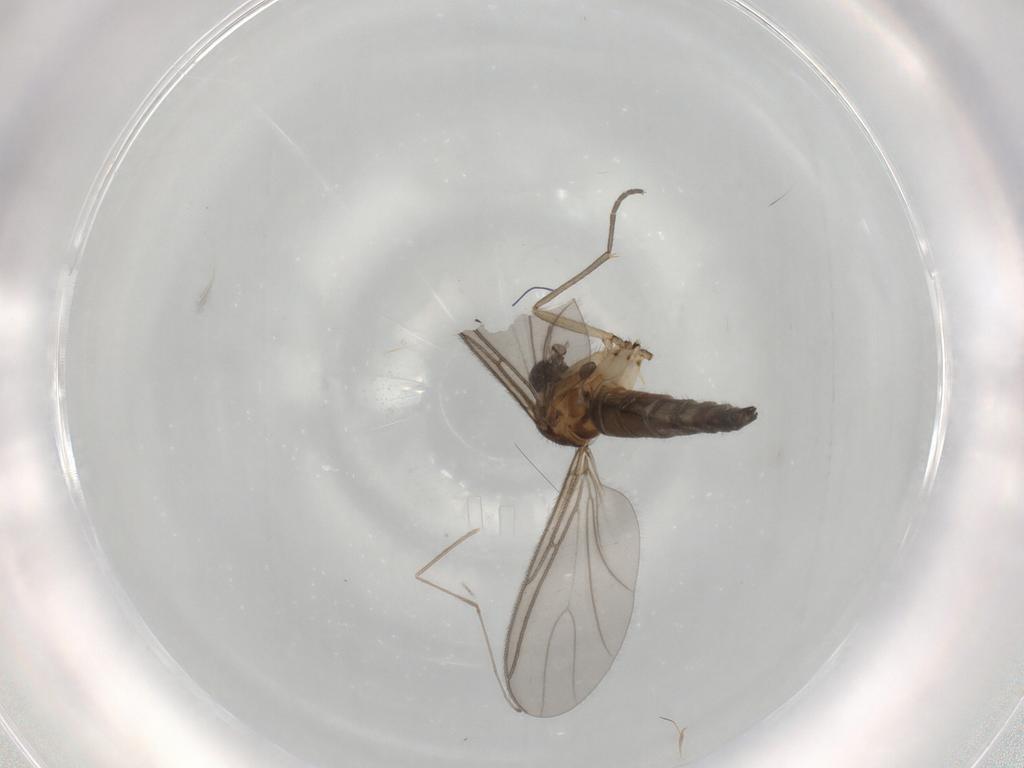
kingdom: Animalia
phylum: Arthropoda
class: Insecta
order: Diptera
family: Sciaridae
